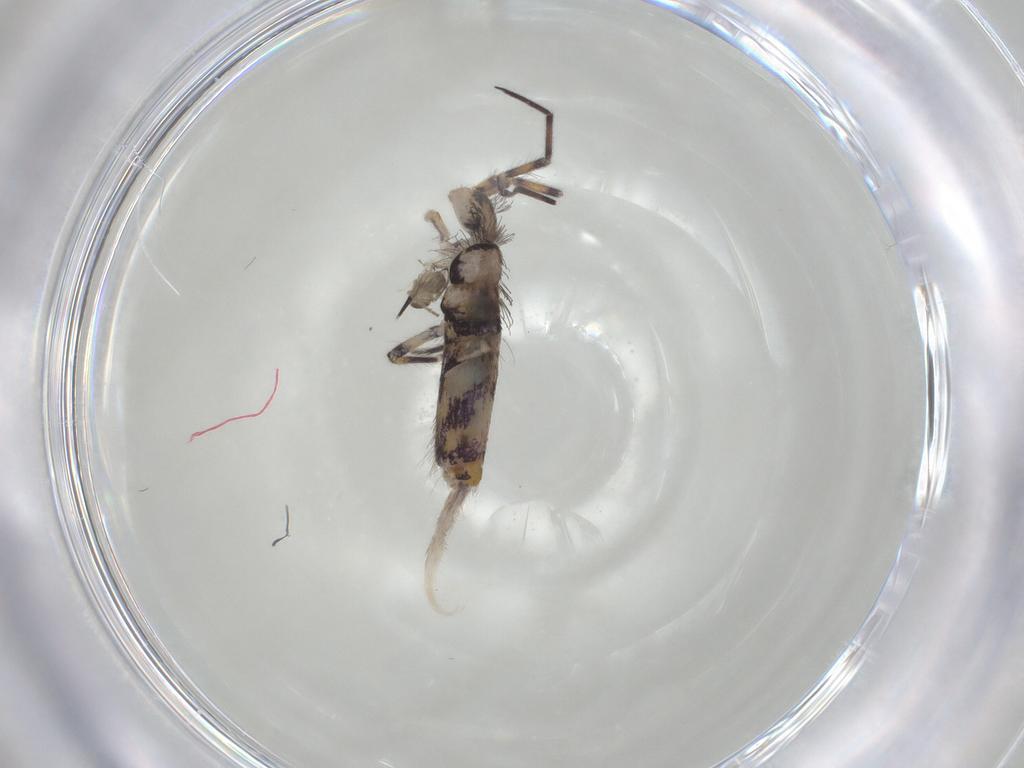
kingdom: Animalia
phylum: Arthropoda
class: Collembola
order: Entomobryomorpha
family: Entomobryidae
